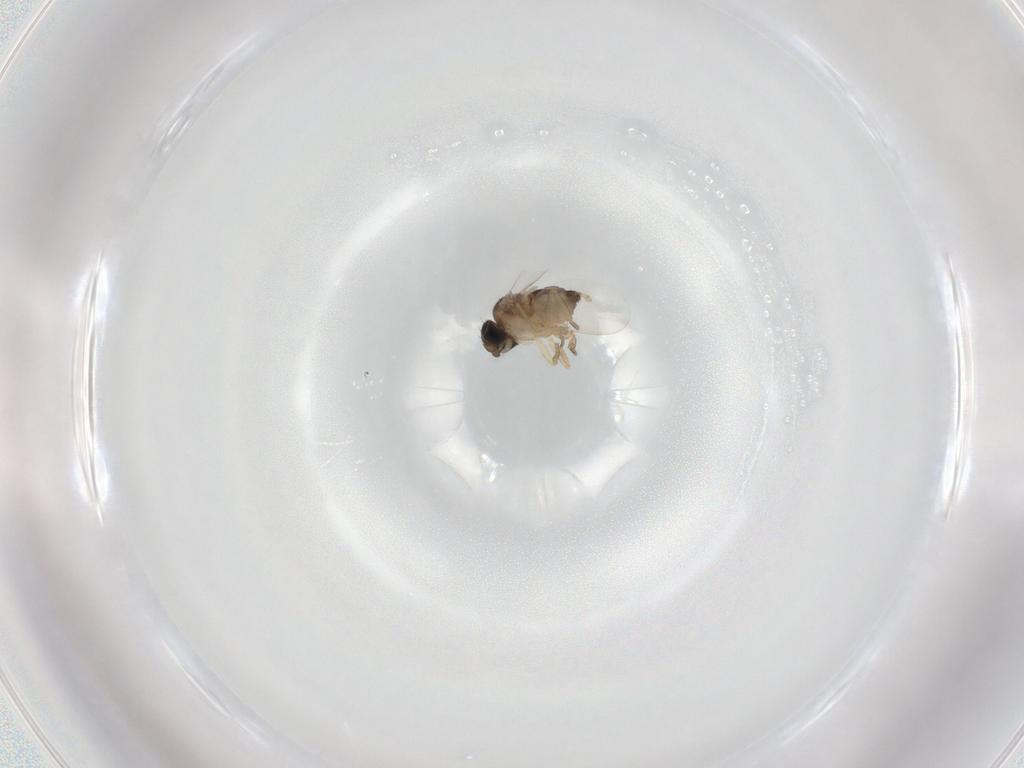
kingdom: Animalia
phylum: Arthropoda
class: Insecta
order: Diptera
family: Phoridae
